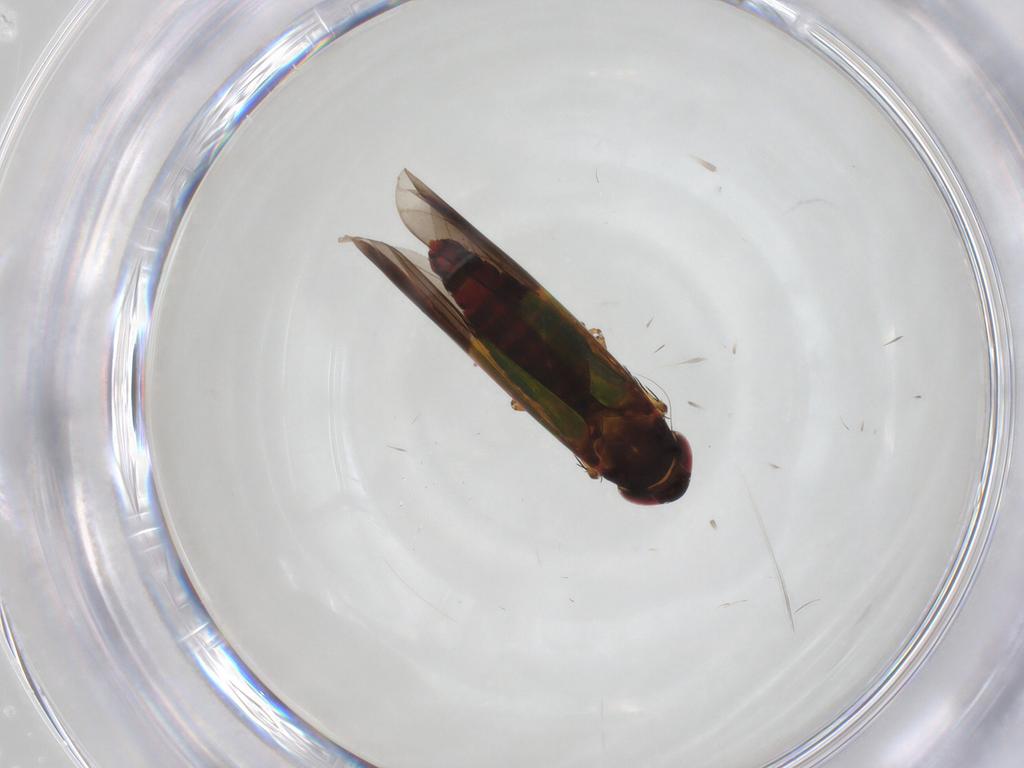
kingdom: Animalia
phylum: Arthropoda
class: Insecta
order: Hemiptera
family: Cicadellidae
